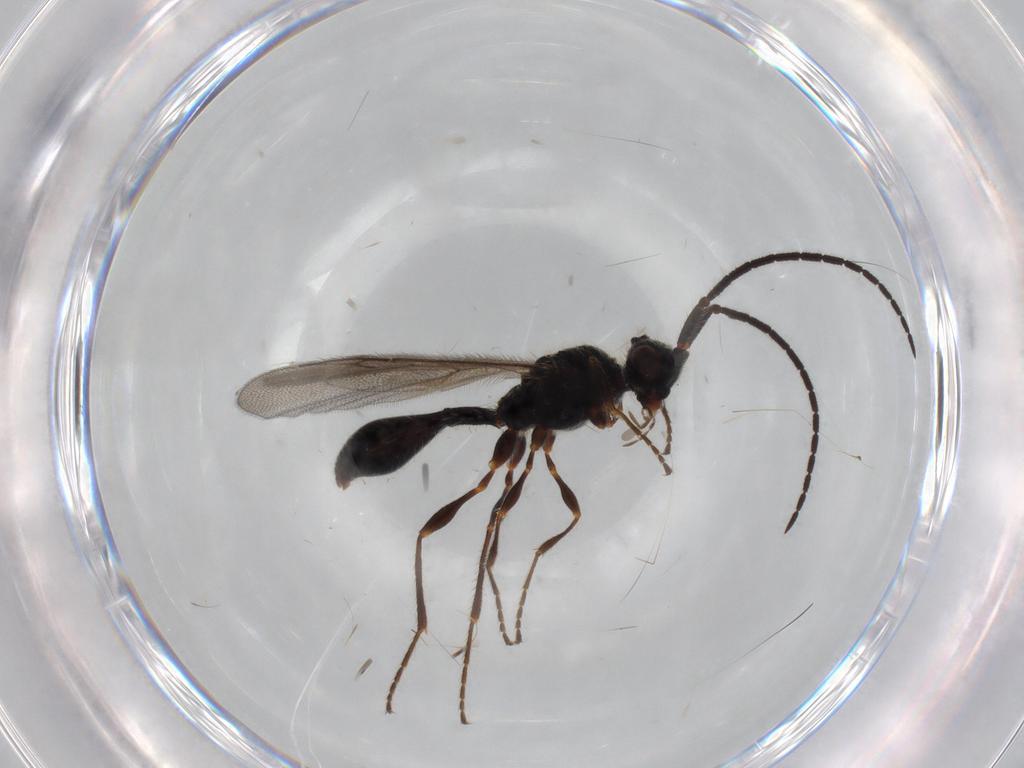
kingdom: Animalia
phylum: Arthropoda
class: Insecta
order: Hymenoptera
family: Diapriidae
